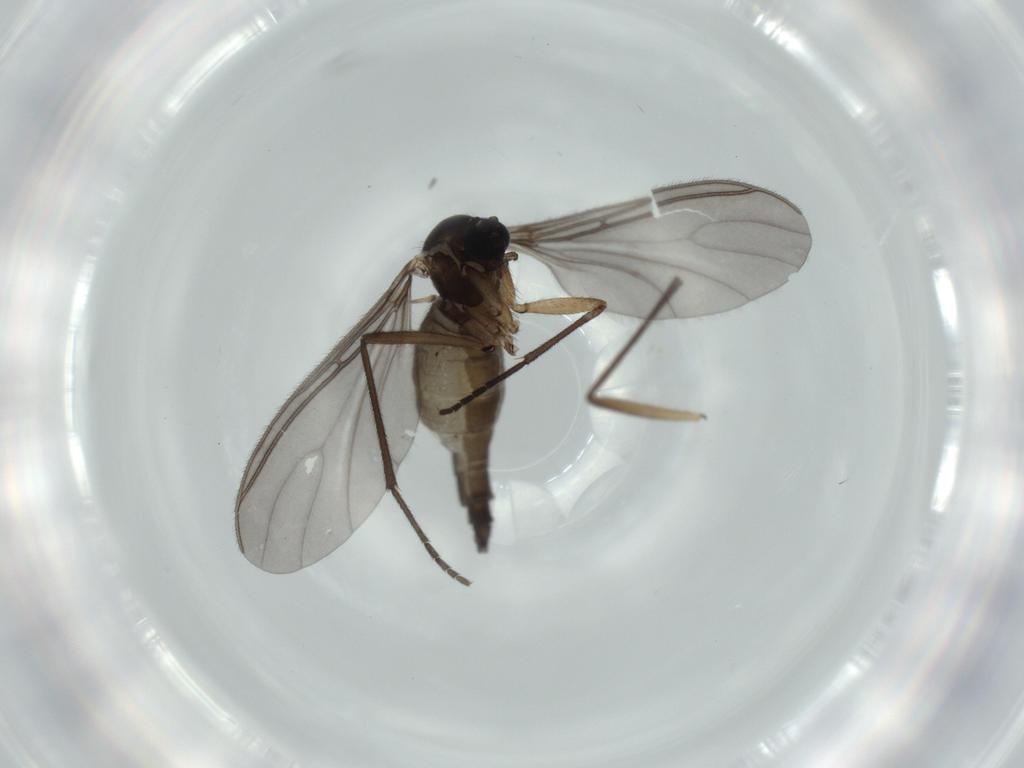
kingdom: Animalia
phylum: Arthropoda
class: Insecta
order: Diptera
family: Sciaridae
